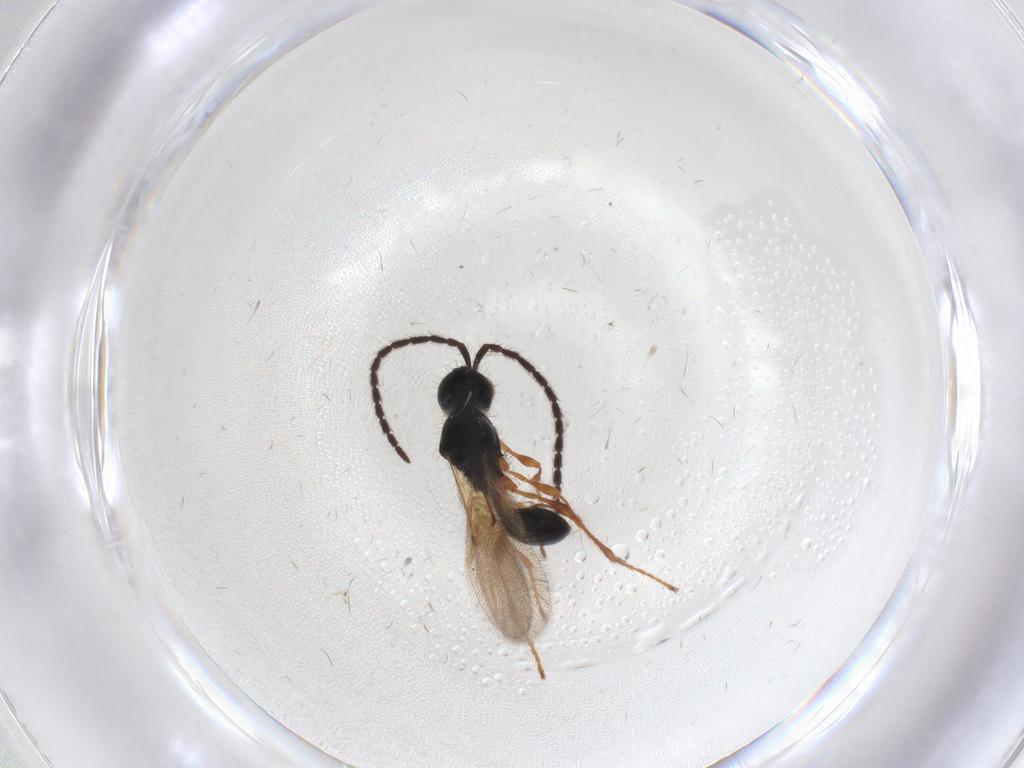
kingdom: Animalia
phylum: Arthropoda
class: Insecta
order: Hymenoptera
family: Diapriidae
